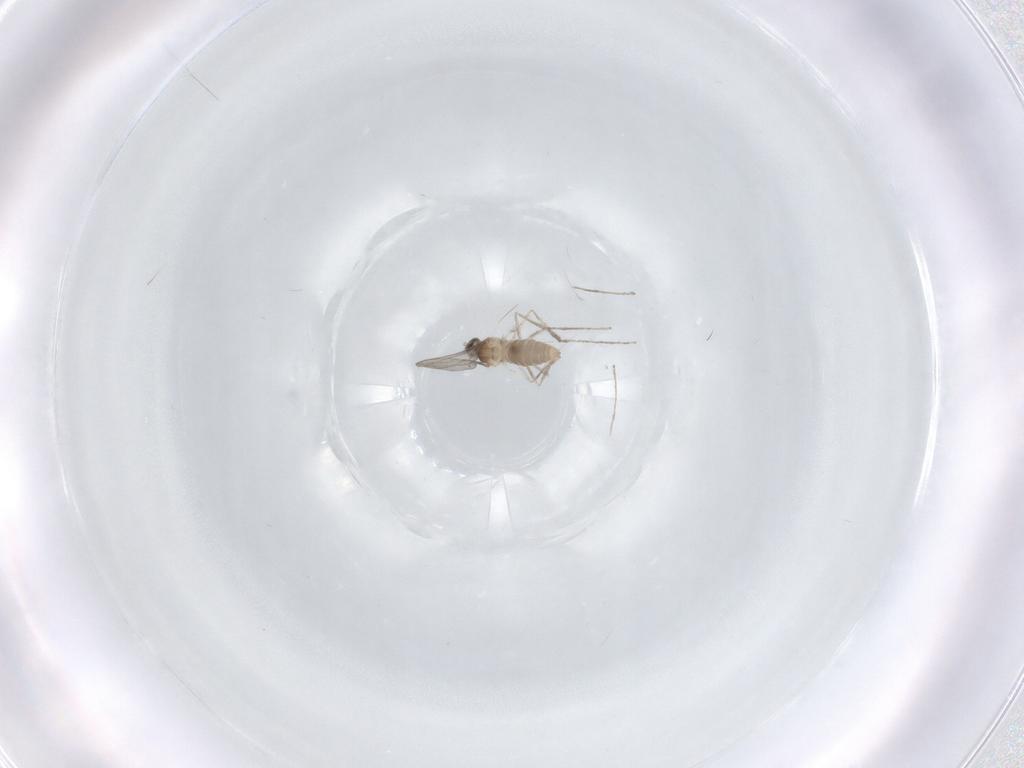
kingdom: Animalia
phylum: Arthropoda
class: Insecta
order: Diptera
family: Cecidomyiidae
